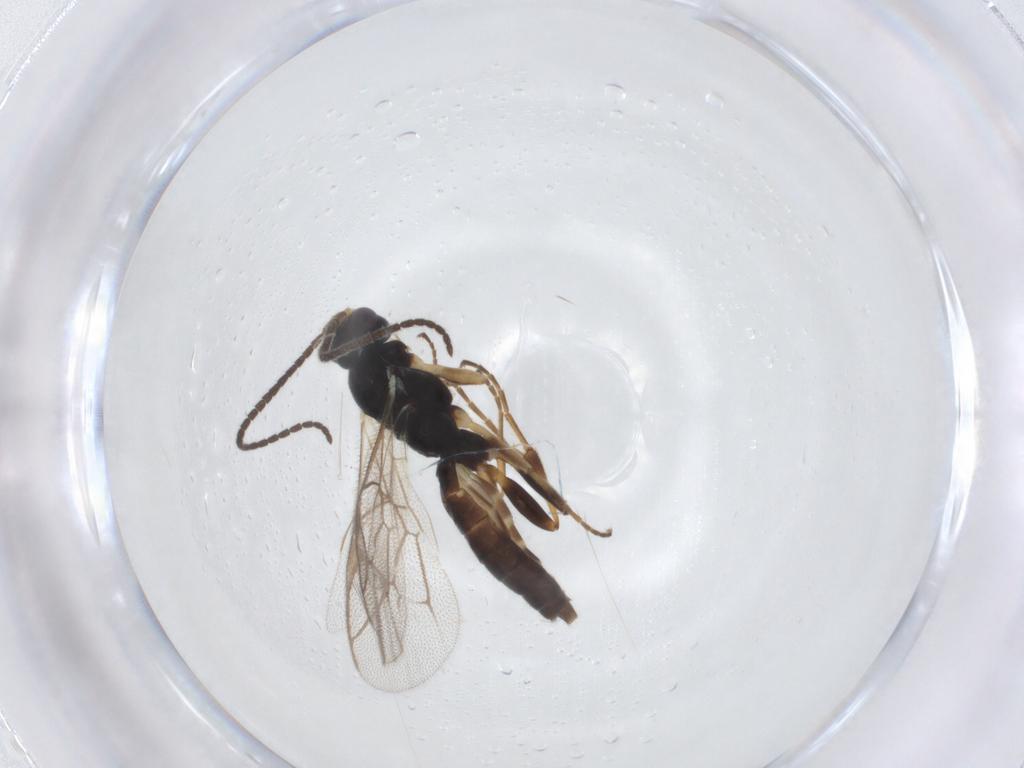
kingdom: Animalia
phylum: Arthropoda
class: Insecta
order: Hymenoptera
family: Ichneumonidae
